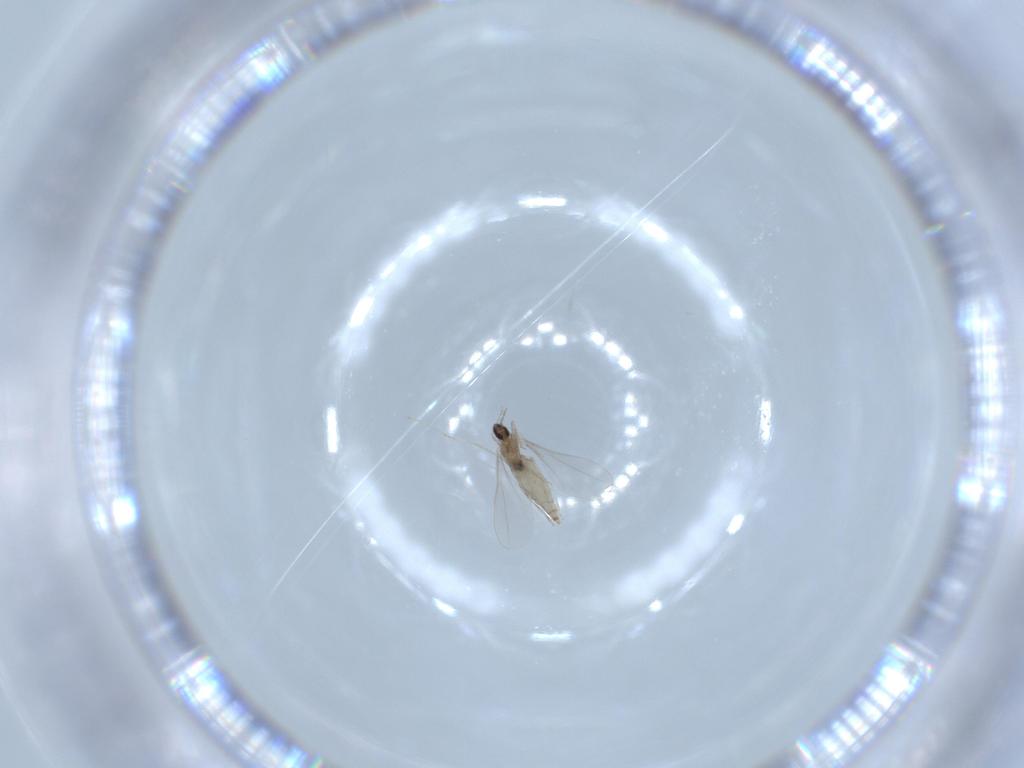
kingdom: Animalia
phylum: Arthropoda
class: Insecta
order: Diptera
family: Cecidomyiidae
